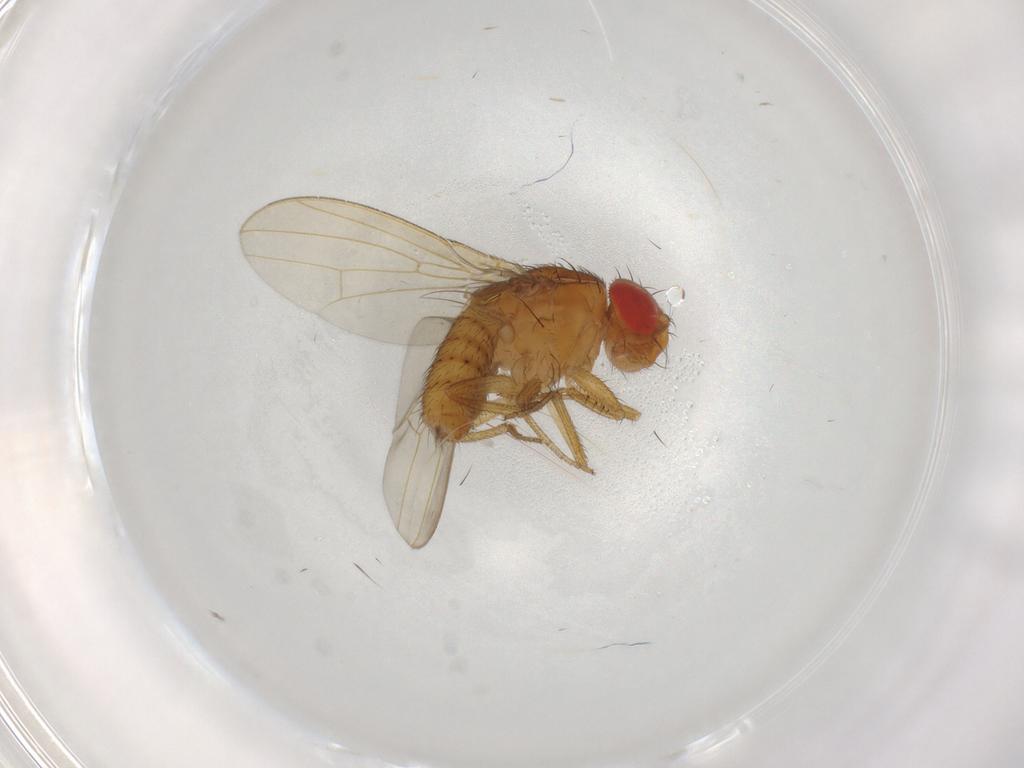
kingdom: Animalia
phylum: Arthropoda
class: Insecta
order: Diptera
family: Drosophilidae
